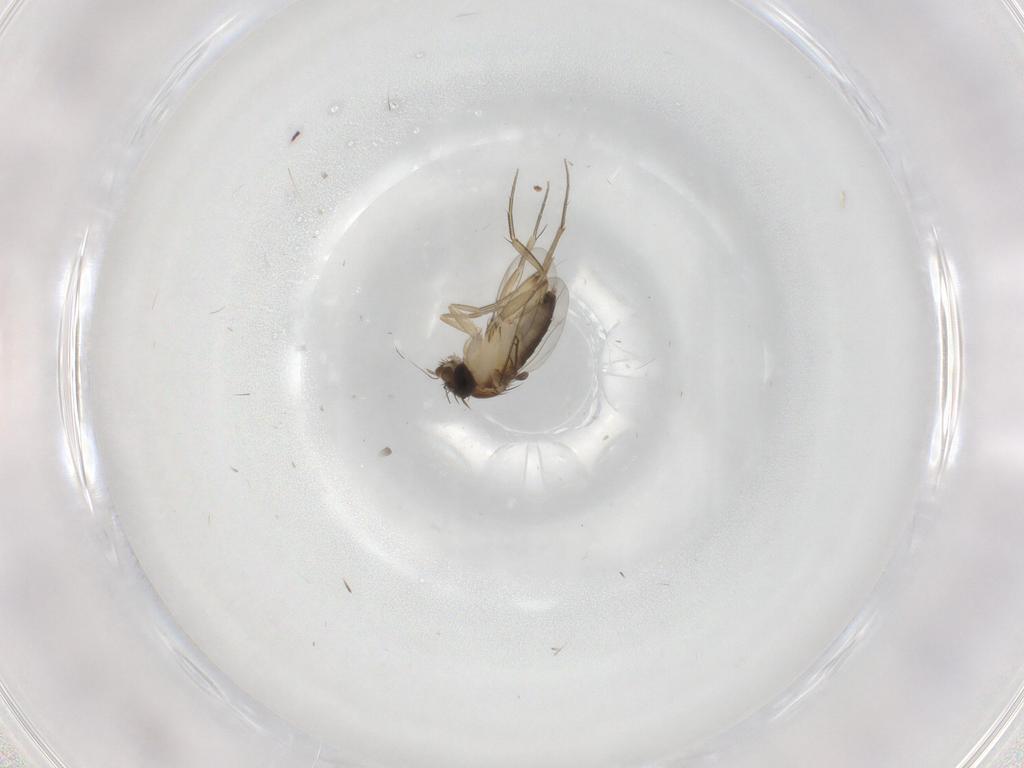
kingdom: Animalia
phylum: Arthropoda
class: Insecta
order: Diptera
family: Phoridae
